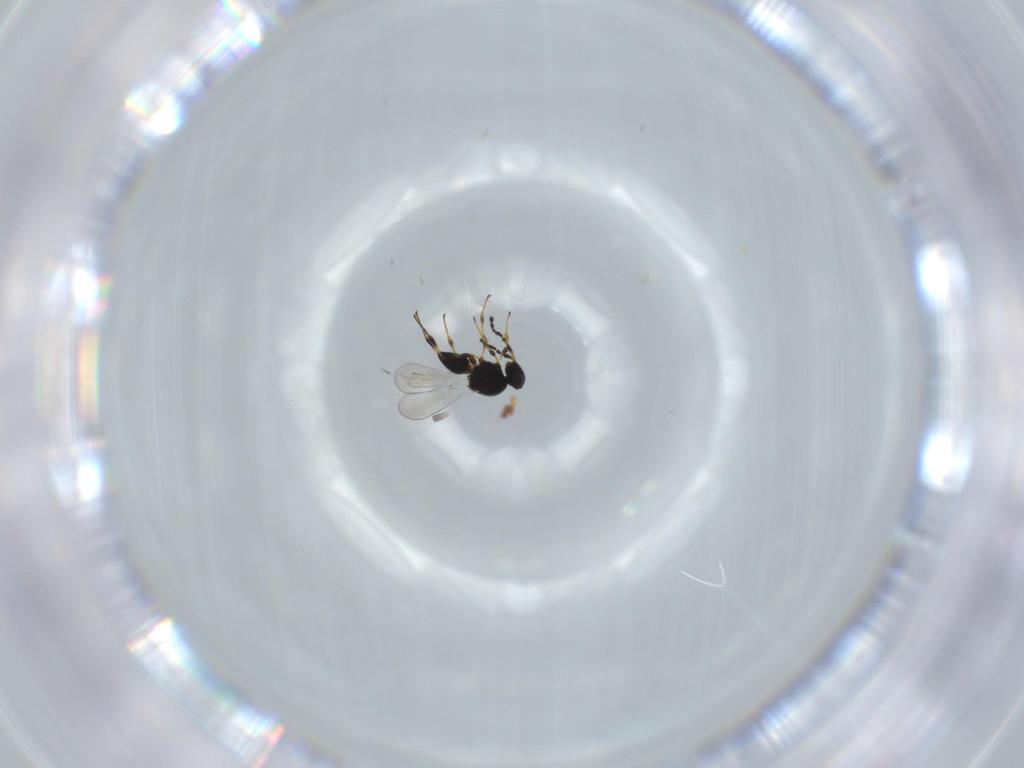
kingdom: Animalia
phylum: Arthropoda
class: Insecta
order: Hymenoptera
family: Platygastridae
